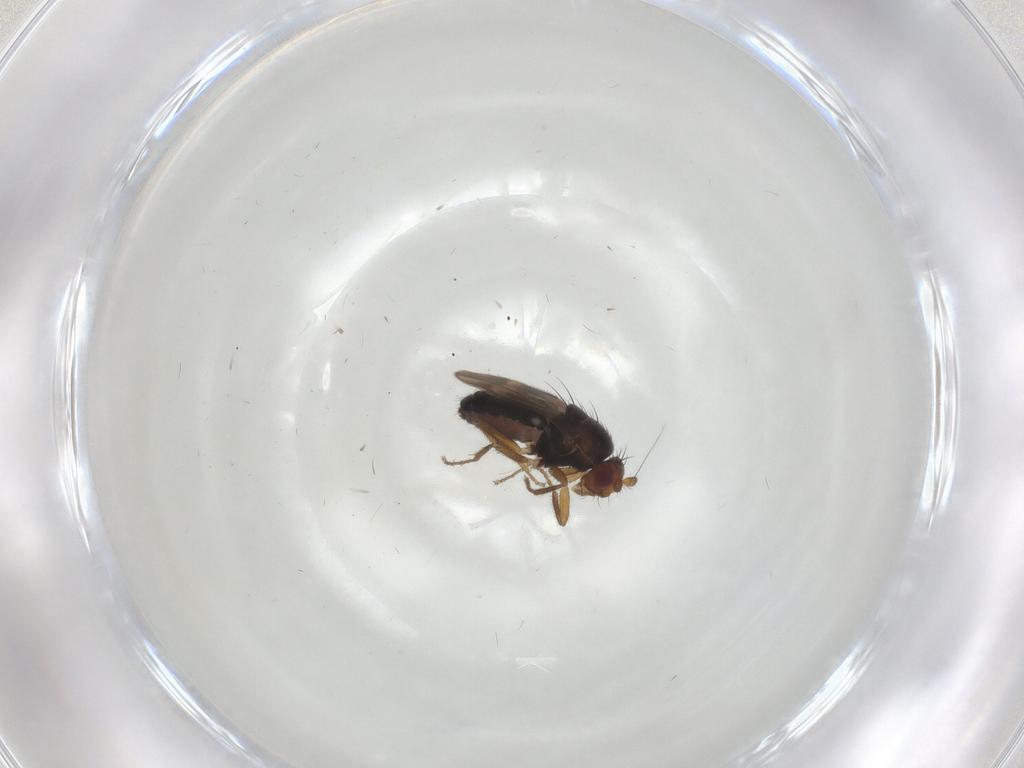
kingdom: Animalia
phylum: Arthropoda
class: Insecta
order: Diptera
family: Sphaeroceridae
